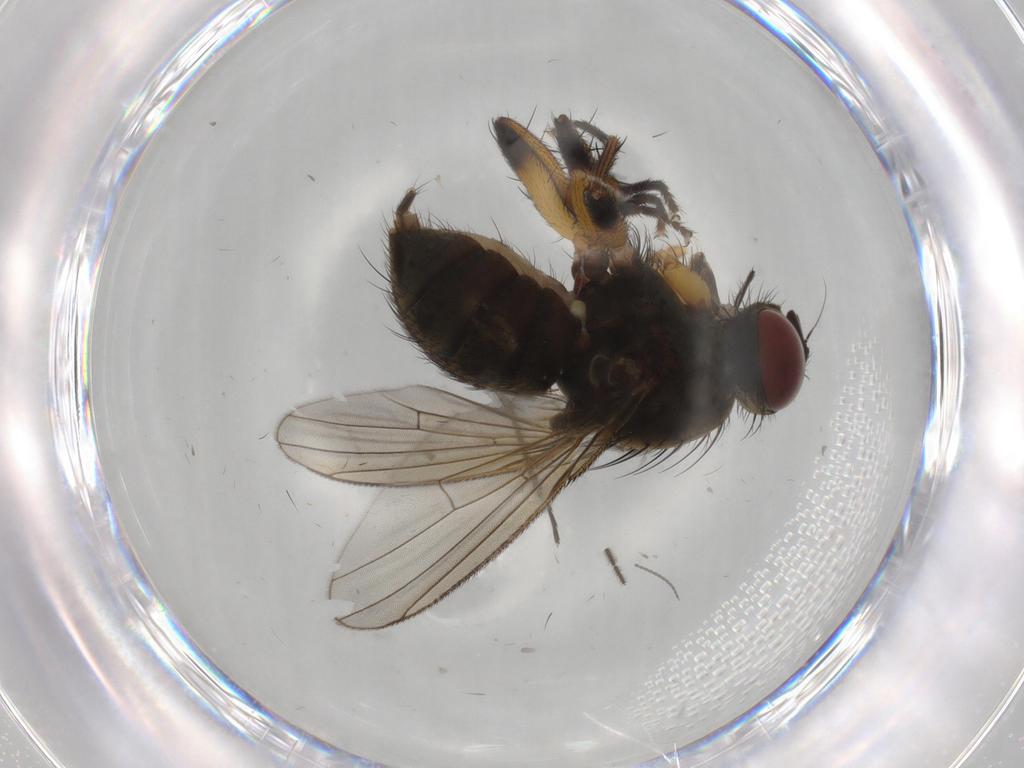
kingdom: Animalia
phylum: Arthropoda
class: Insecta
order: Diptera
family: Muscidae
